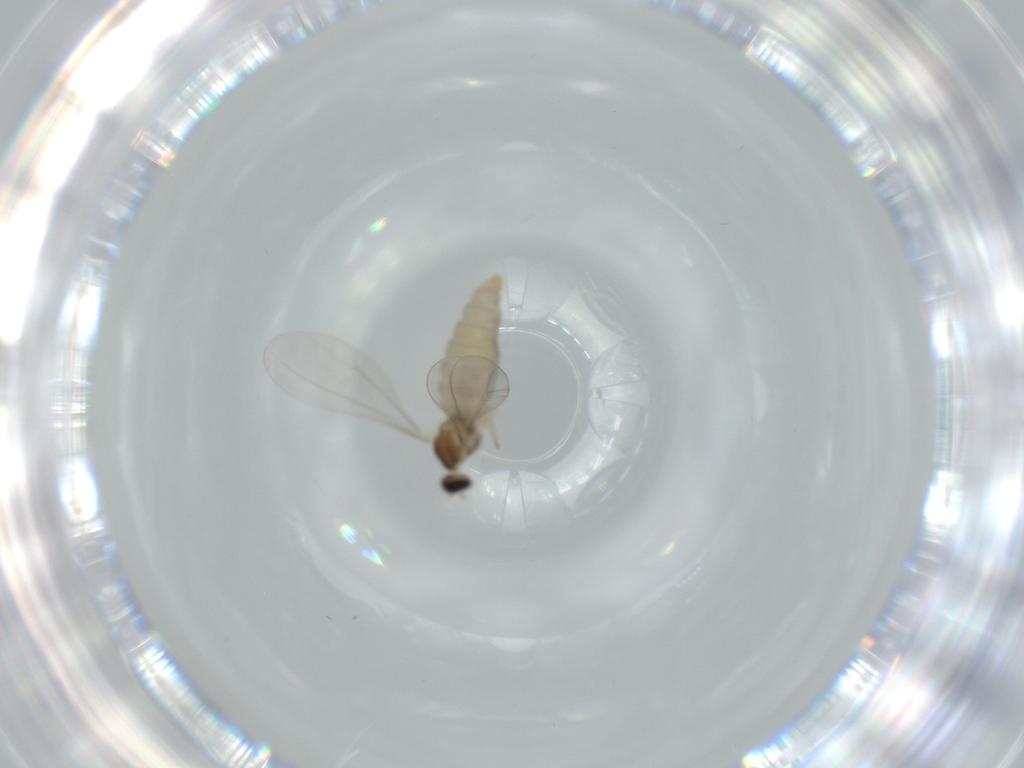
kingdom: Animalia
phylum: Arthropoda
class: Insecta
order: Diptera
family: Cecidomyiidae
